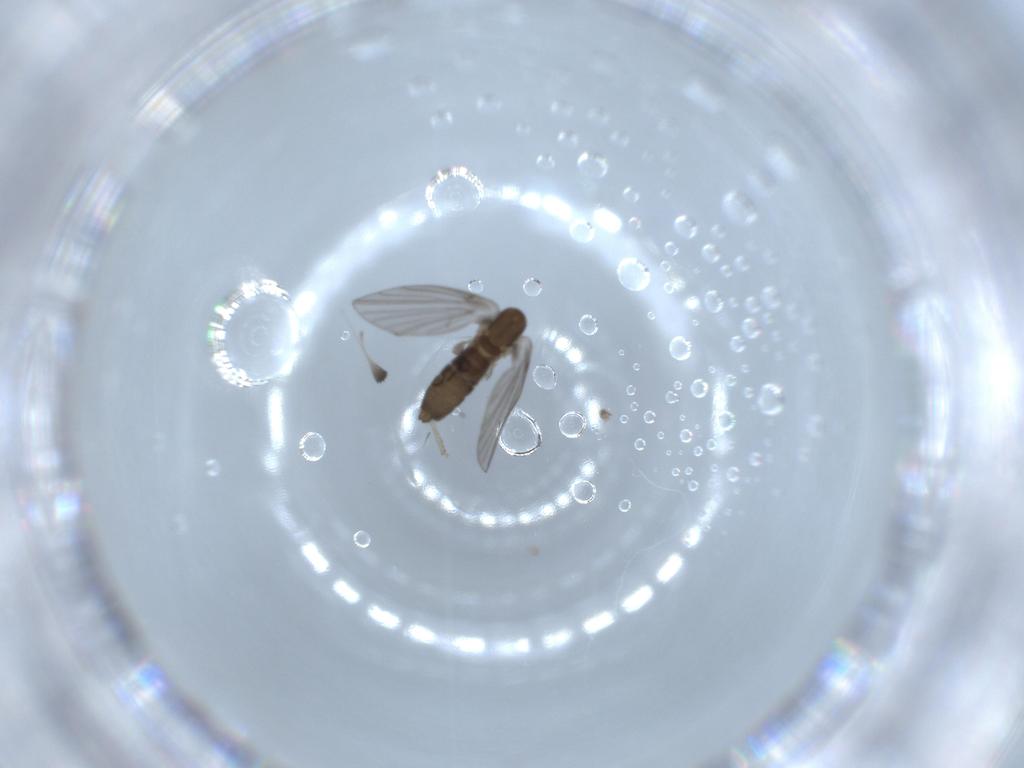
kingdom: Animalia
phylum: Arthropoda
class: Insecta
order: Diptera
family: Psychodidae
